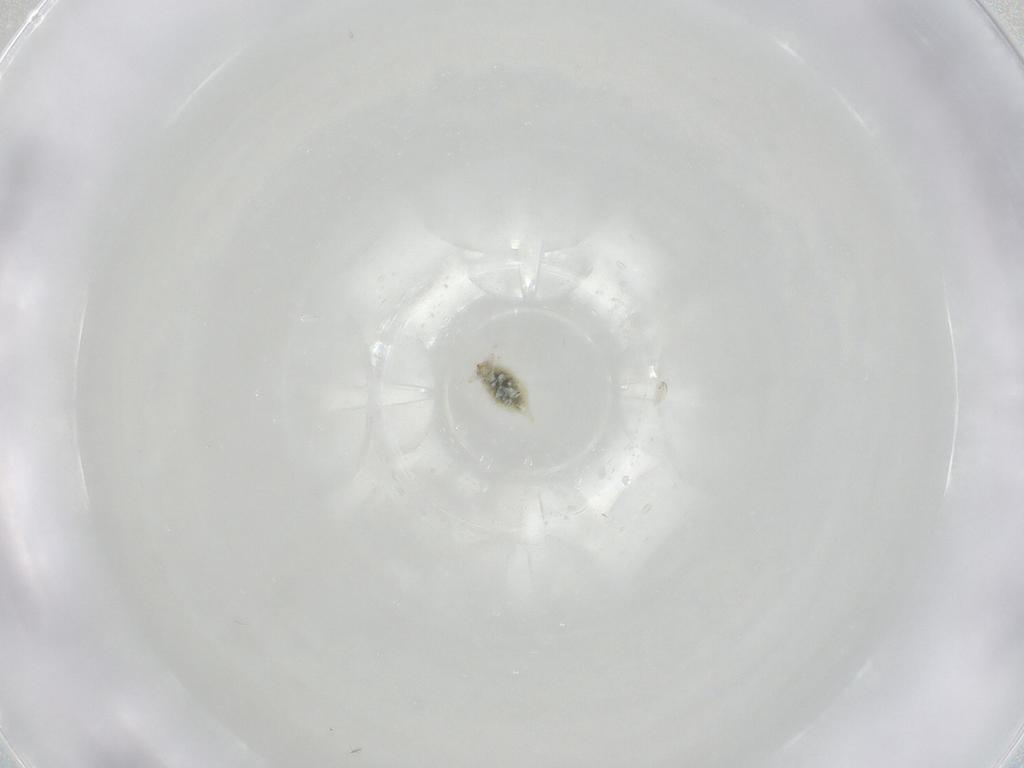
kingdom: Animalia
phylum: Arthropoda
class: Insecta
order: Neuroptera
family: Coniopterygidae
